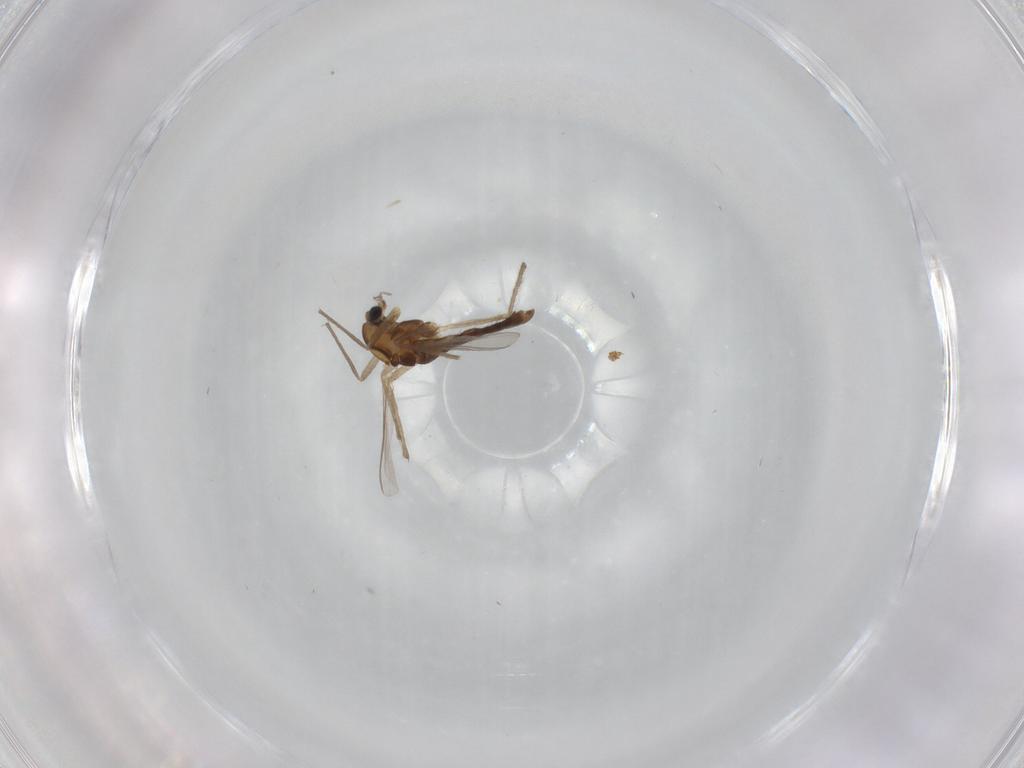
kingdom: Animalia
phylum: Arthropoda
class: Insecta
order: Diptera
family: Chironomidae
